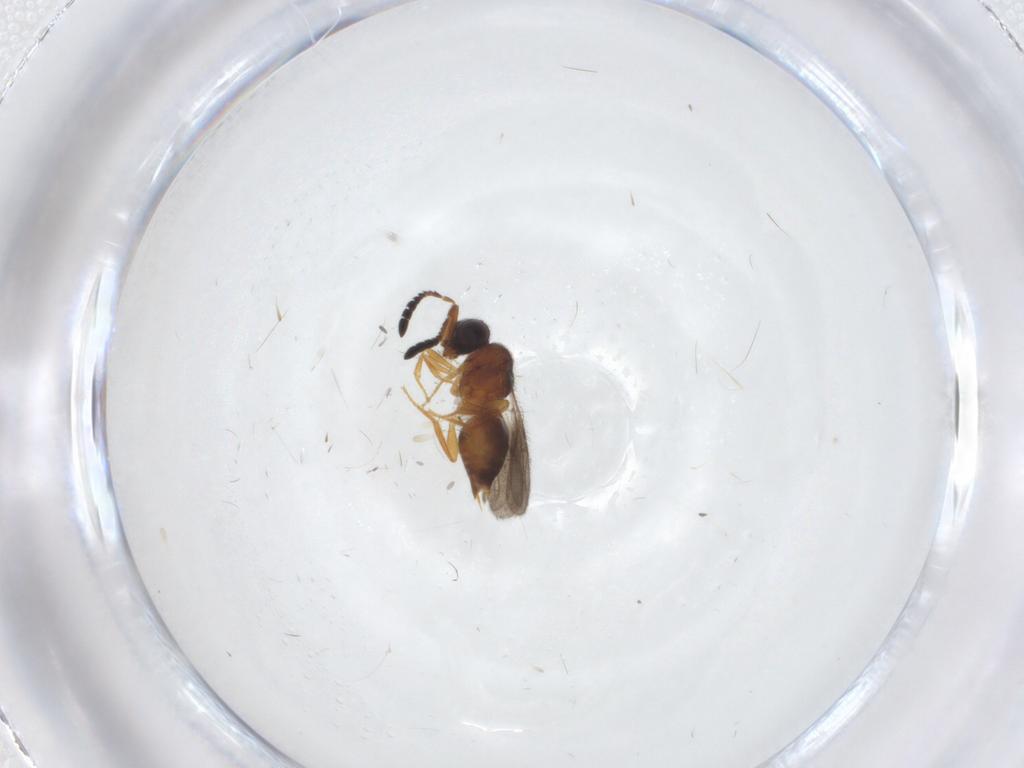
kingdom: Animalia
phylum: Arthropoda
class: Insecta
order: Hymenoptera
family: Ceraphronidae
